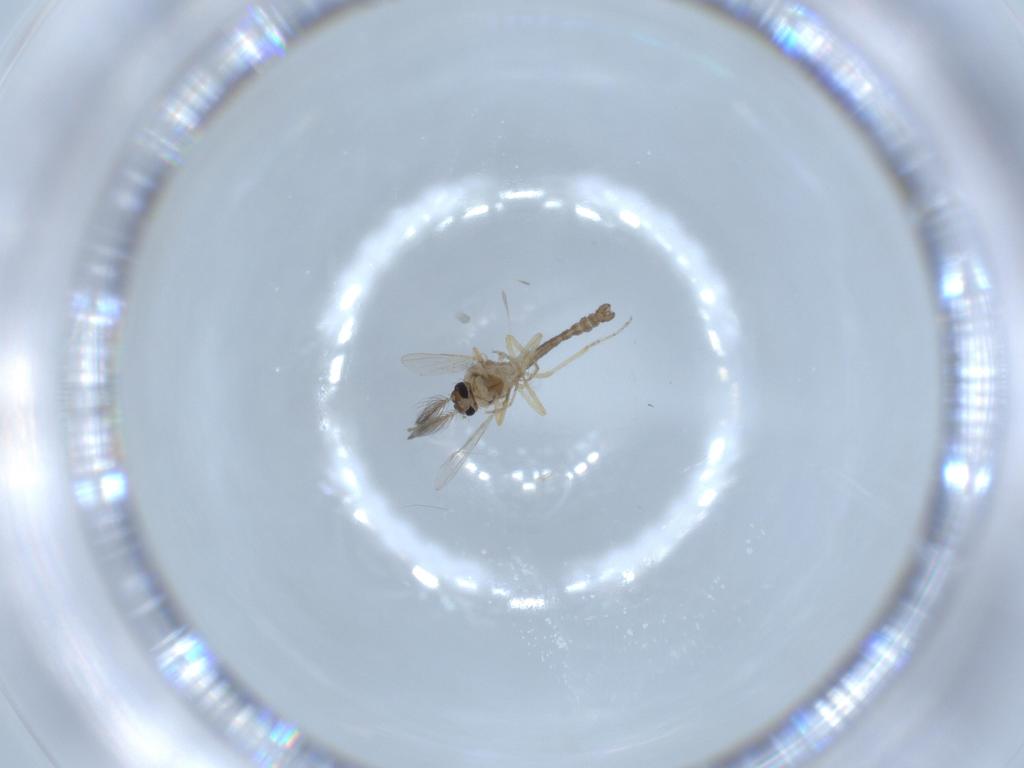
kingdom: Animalia
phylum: Arthropoda
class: Insecta
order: Diptera
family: Ceratopogonidae
